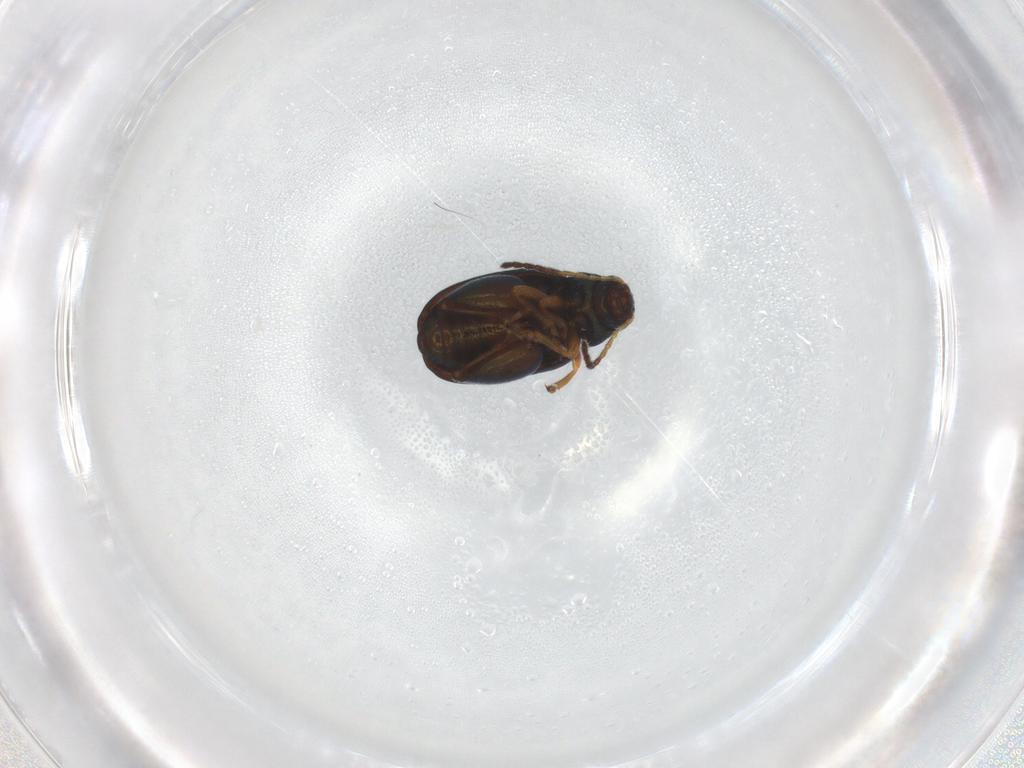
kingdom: Animalia
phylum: Arthropoda
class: Insecta
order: Coleoptera
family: Chrysomelidae
